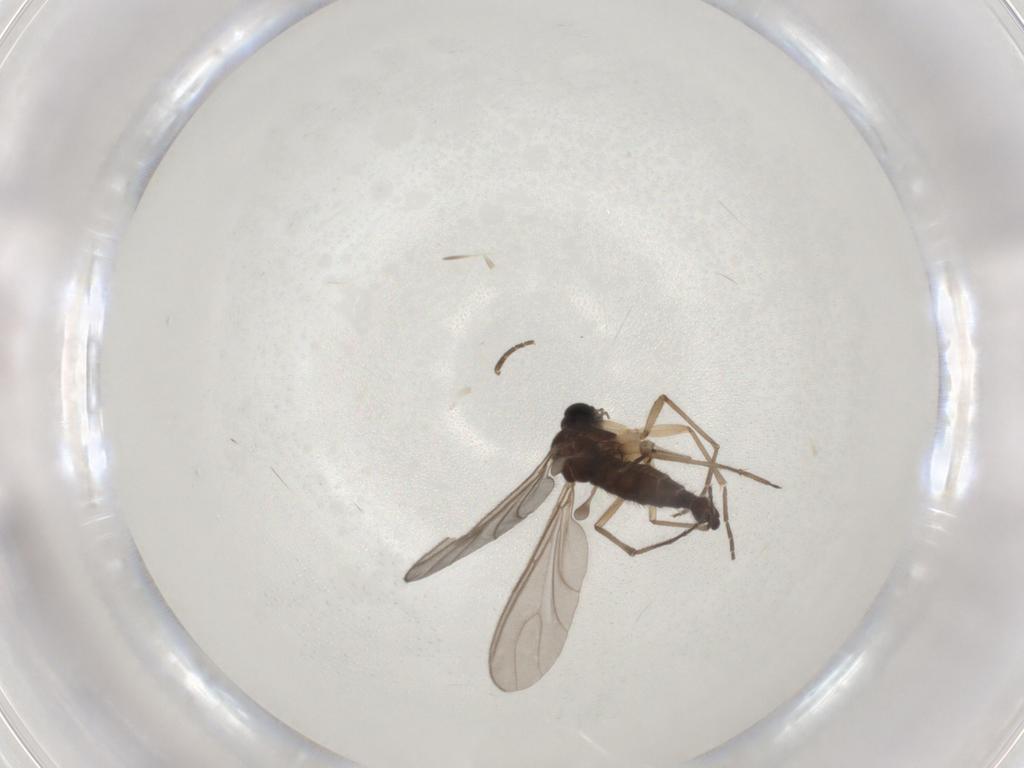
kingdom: Animalia
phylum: Arthropoda
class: Insecta
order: Diptera
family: Sciaridae
